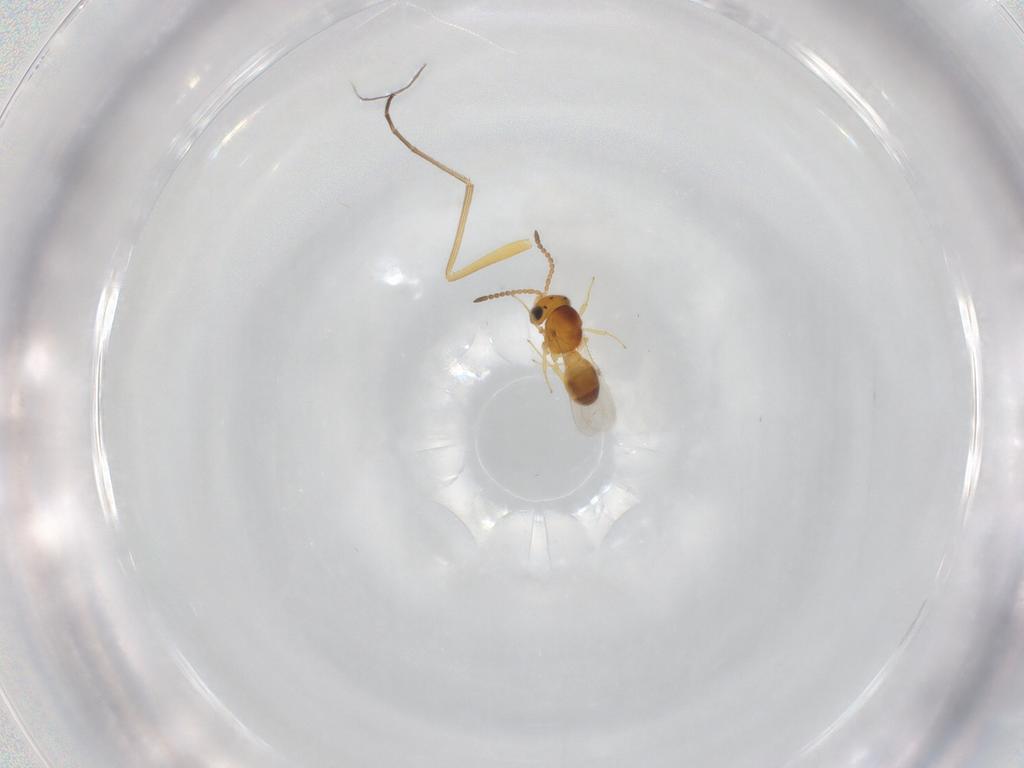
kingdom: Animalia
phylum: Arthropoda
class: Insecta
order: Hymenoptera
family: Scelionidae
